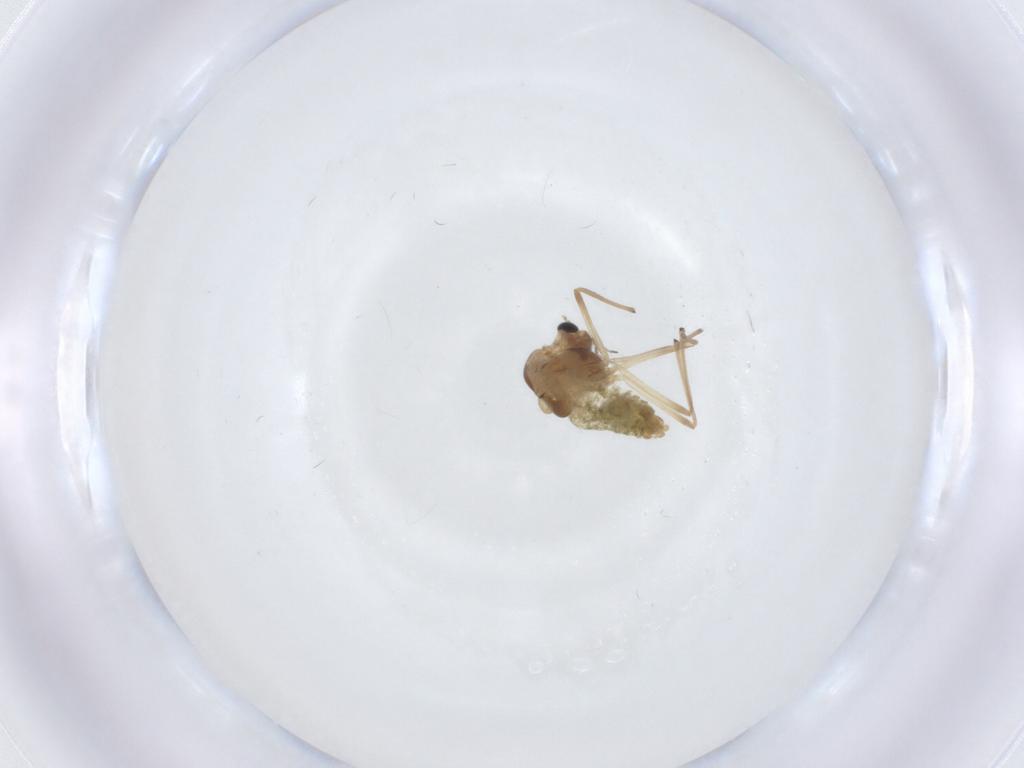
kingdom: Animalia
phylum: Arthropoda
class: Insecta
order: Diptera
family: Chironomidae
